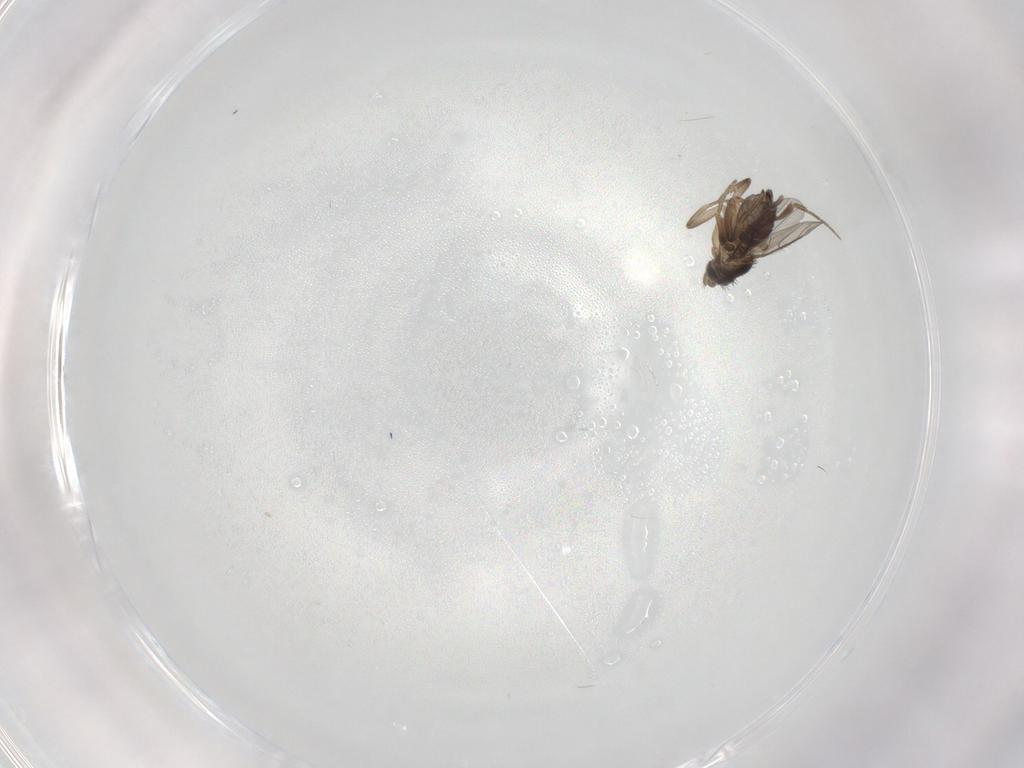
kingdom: Animalia
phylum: Arthropoda
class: Insecta
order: Diptera
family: Phoridae
